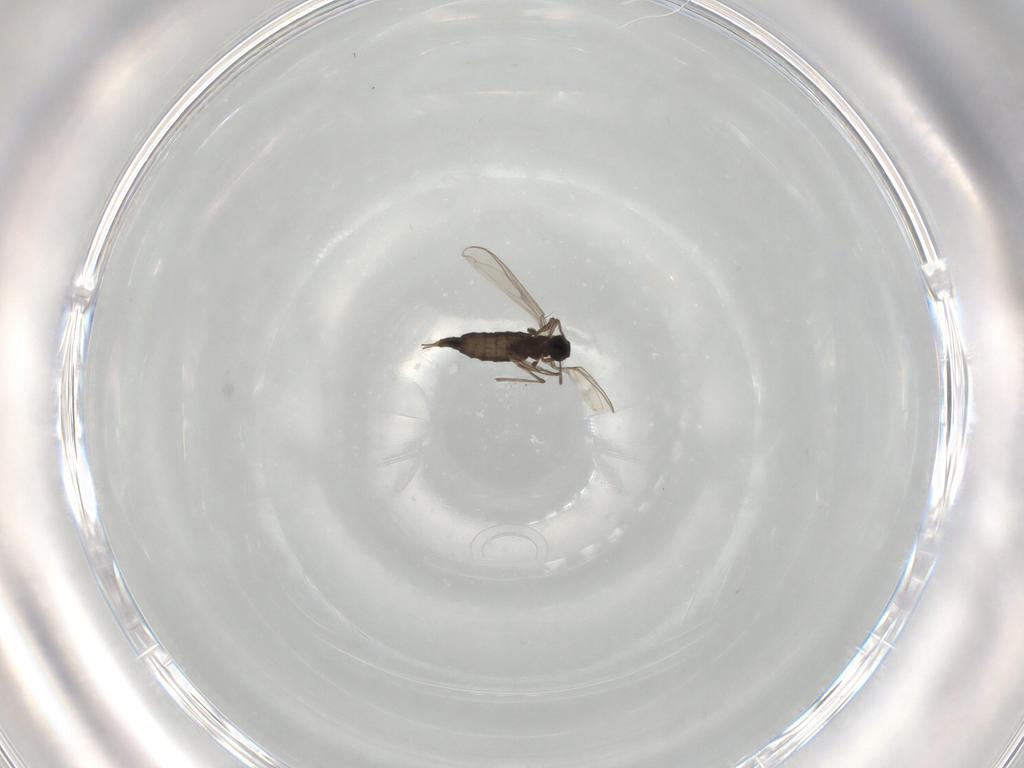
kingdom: Animalia
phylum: Arthropoda
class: Insecta
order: Diptera
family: Chironomidae
